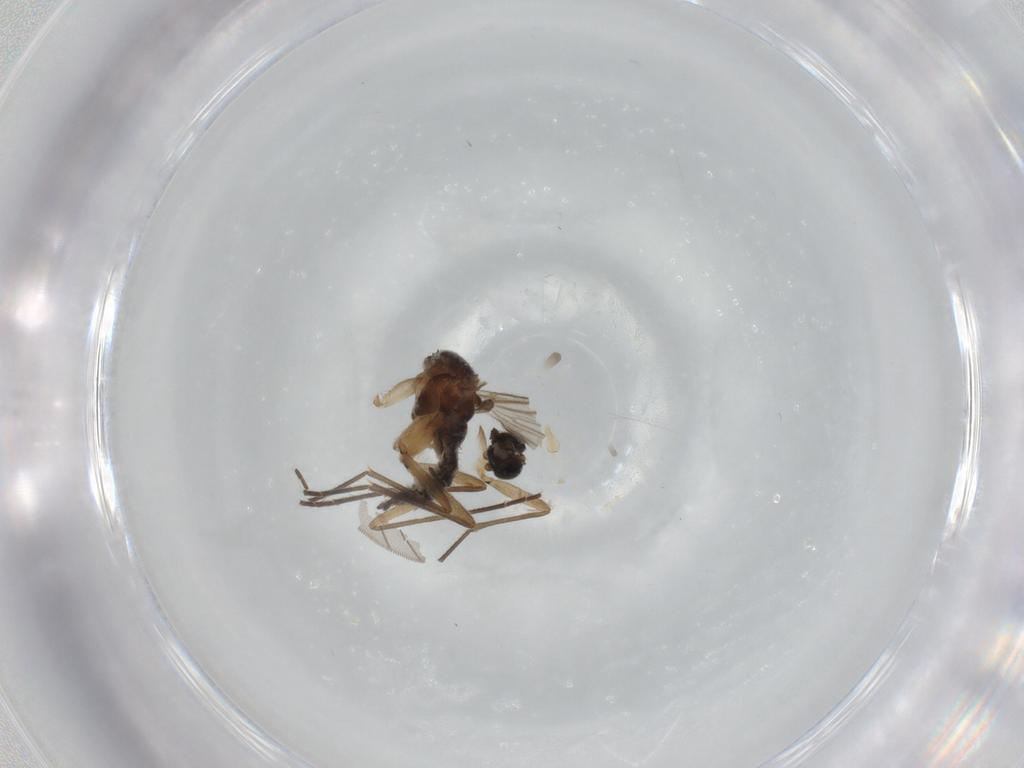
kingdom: Animalia
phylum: Arthropoda
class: Insecta
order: Diptera
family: Sciaridae
